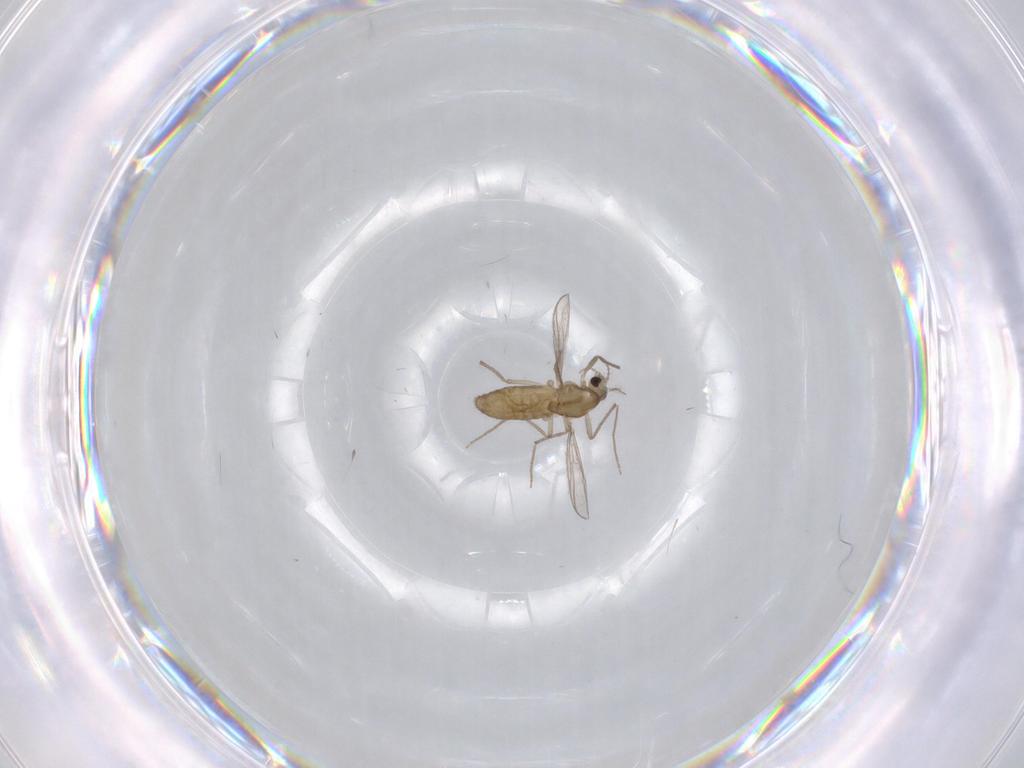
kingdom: Animalia
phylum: Arthropoda
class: Insecta
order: Diptera
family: Chironomidae
